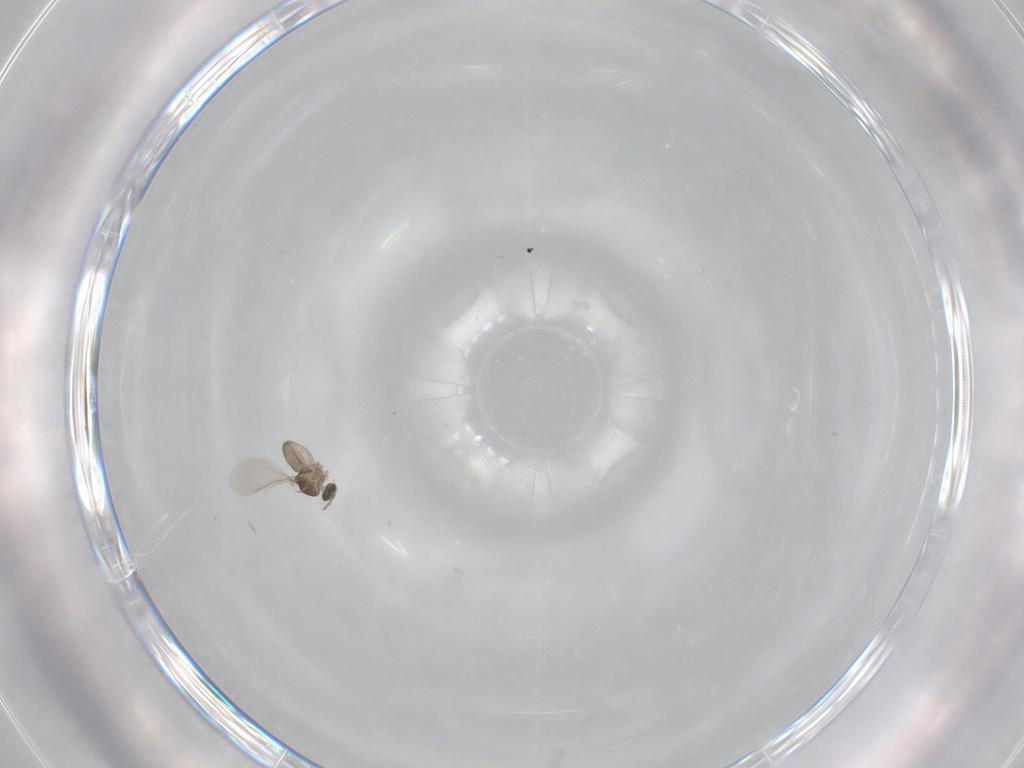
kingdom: Animalia
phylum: Arthropoda
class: Insecta
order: Diptera
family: Cecidomyiidae
